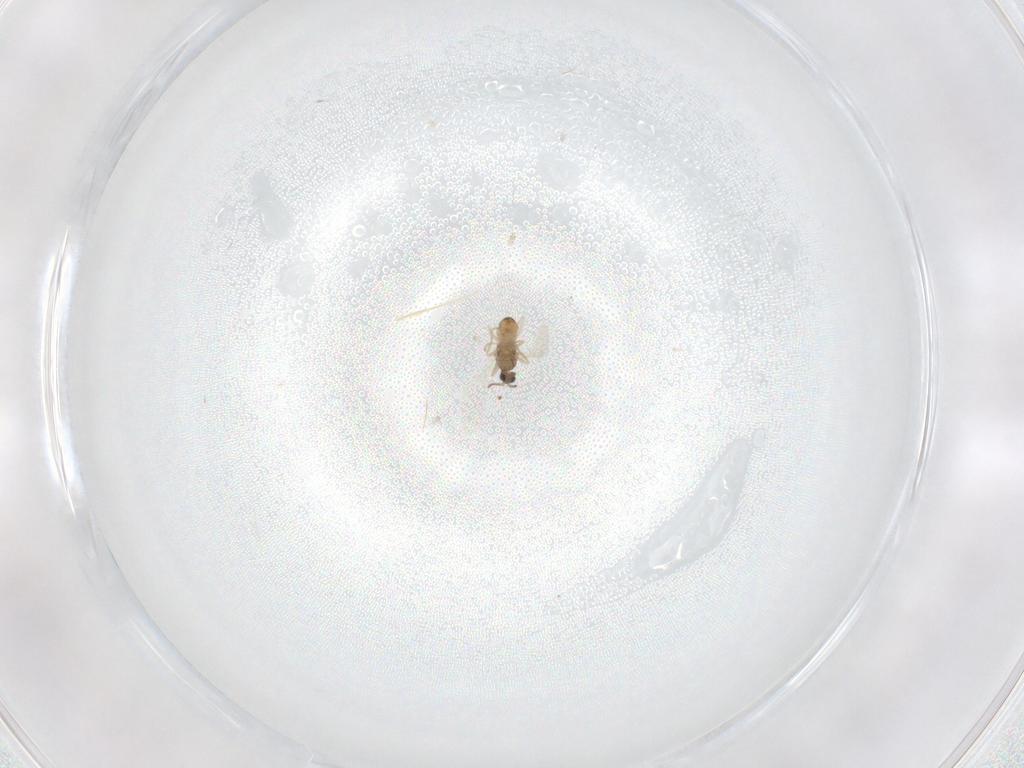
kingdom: Animalia
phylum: Arthropoda
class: Insecta
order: Diptera
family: Cecidomyiidae
